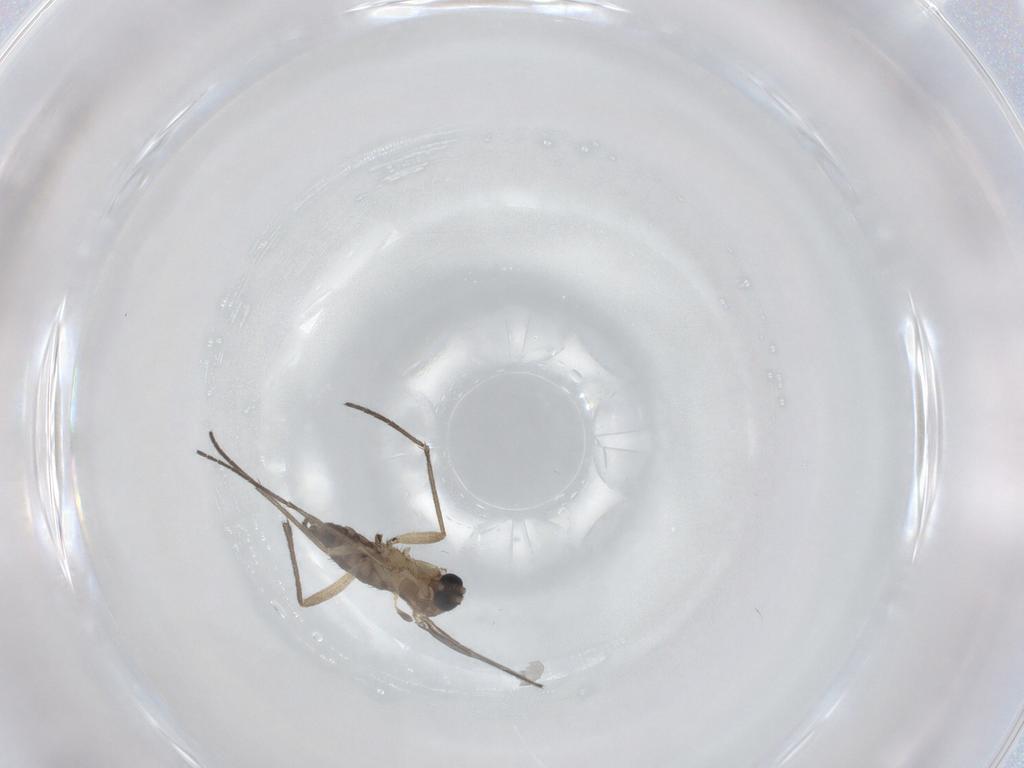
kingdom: Animalia
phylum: Arthropoda
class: Insecta
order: Diptera
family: Sciaridae
